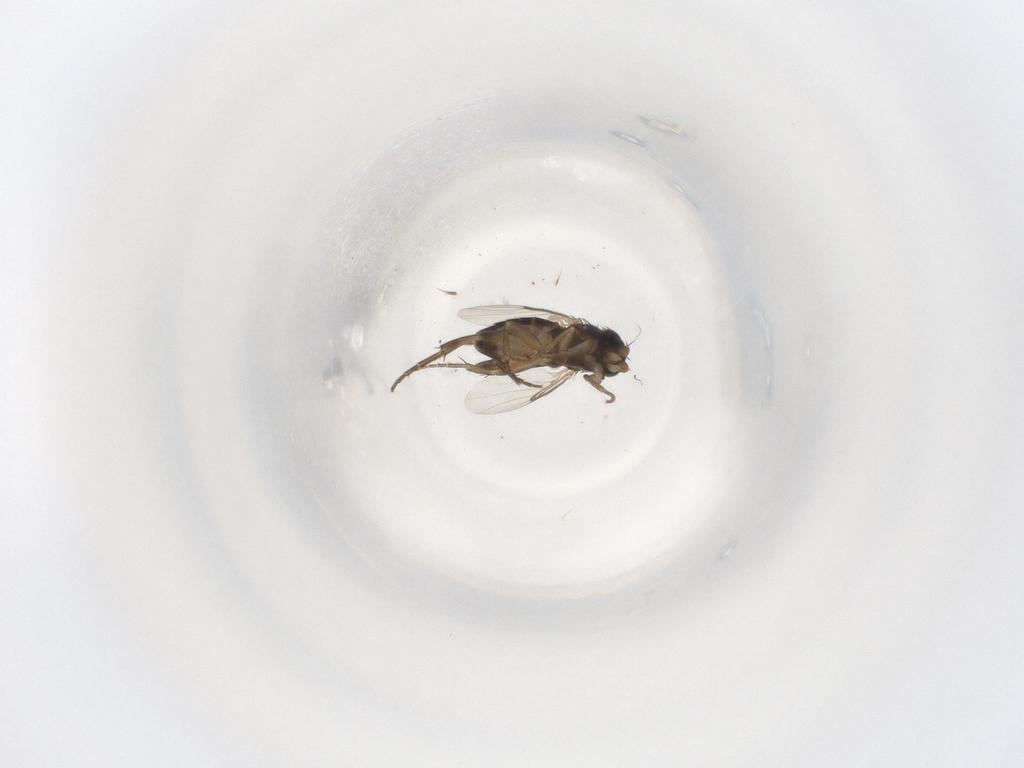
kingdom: Animalia
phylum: Arthropoda
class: Insecta
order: Diptera
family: Phoridae
